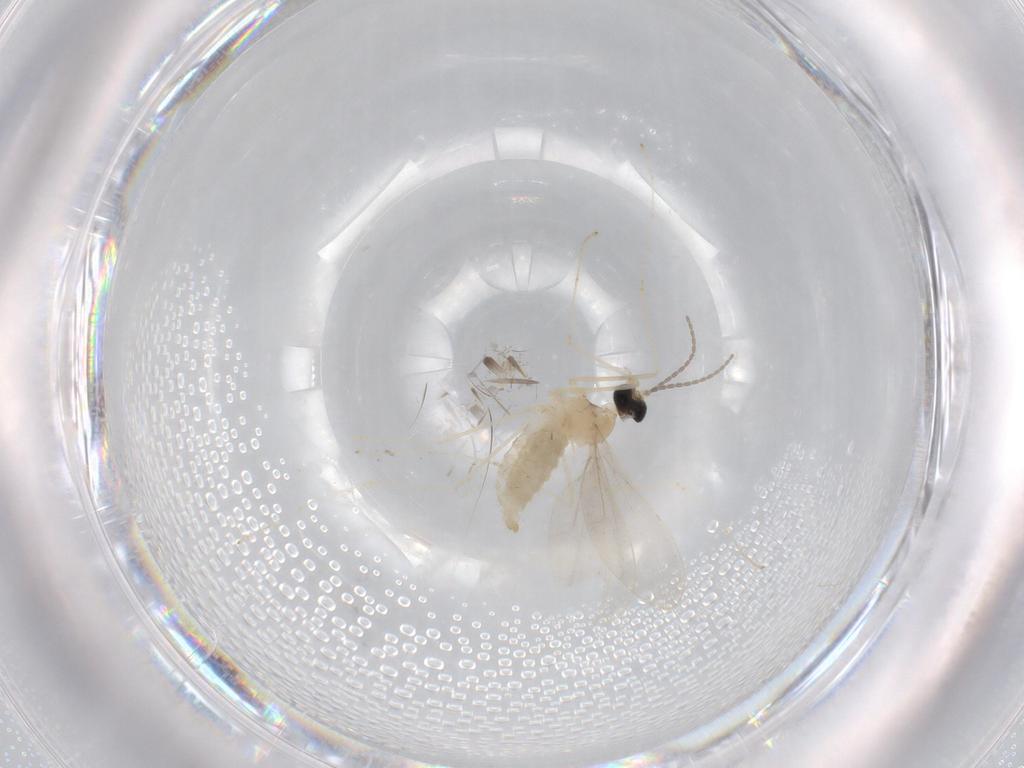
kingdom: Animalia
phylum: Arthropoda
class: Insecta
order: Diptera
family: Cecidomyiidae
